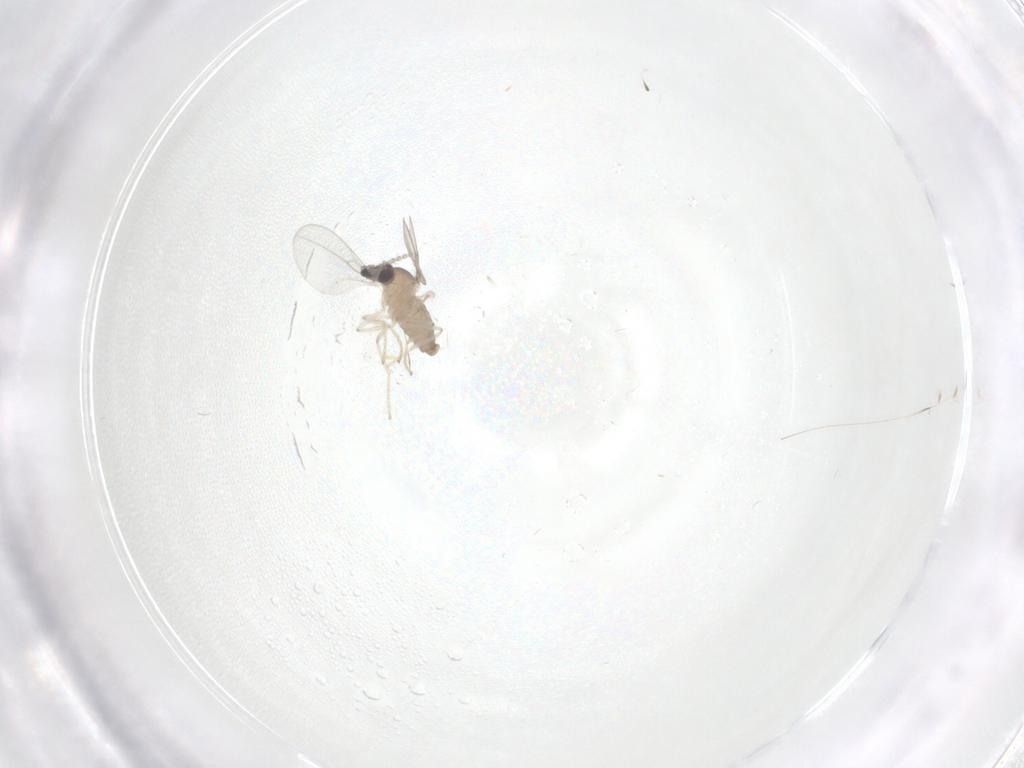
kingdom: Animalia
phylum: Arthropoda
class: Insecta
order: Diptera
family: Cecidomyiidae
